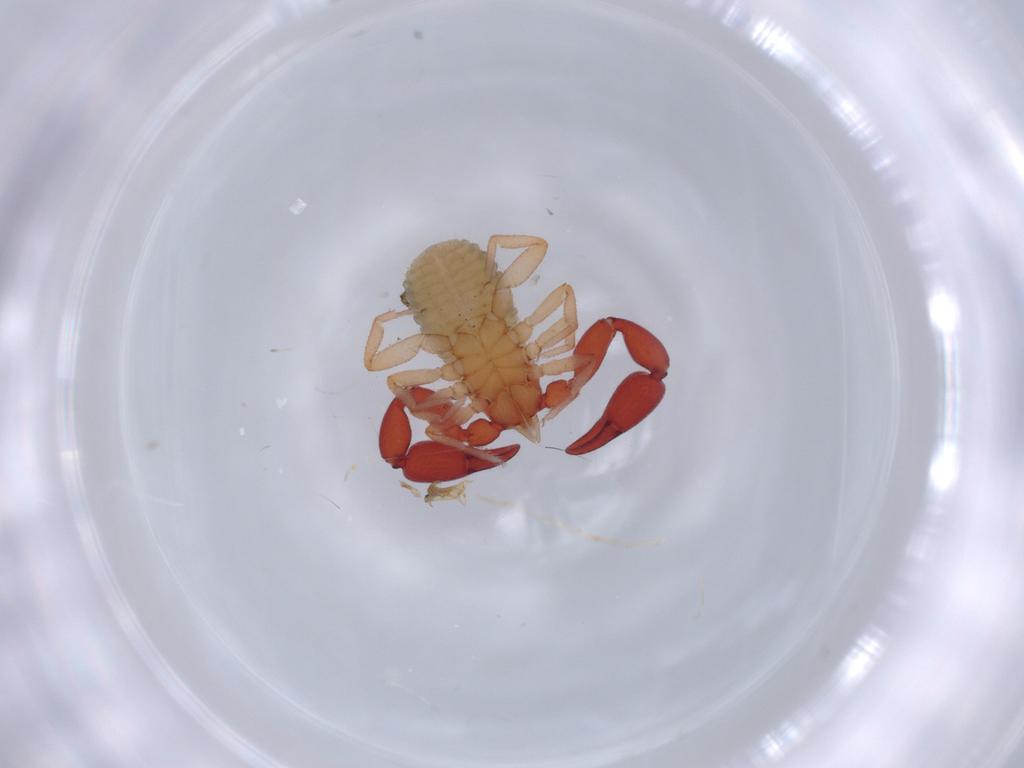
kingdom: Animalia
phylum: Arthropoda
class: Arachnida
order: Pseudoscorpiones
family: Chernetidae
